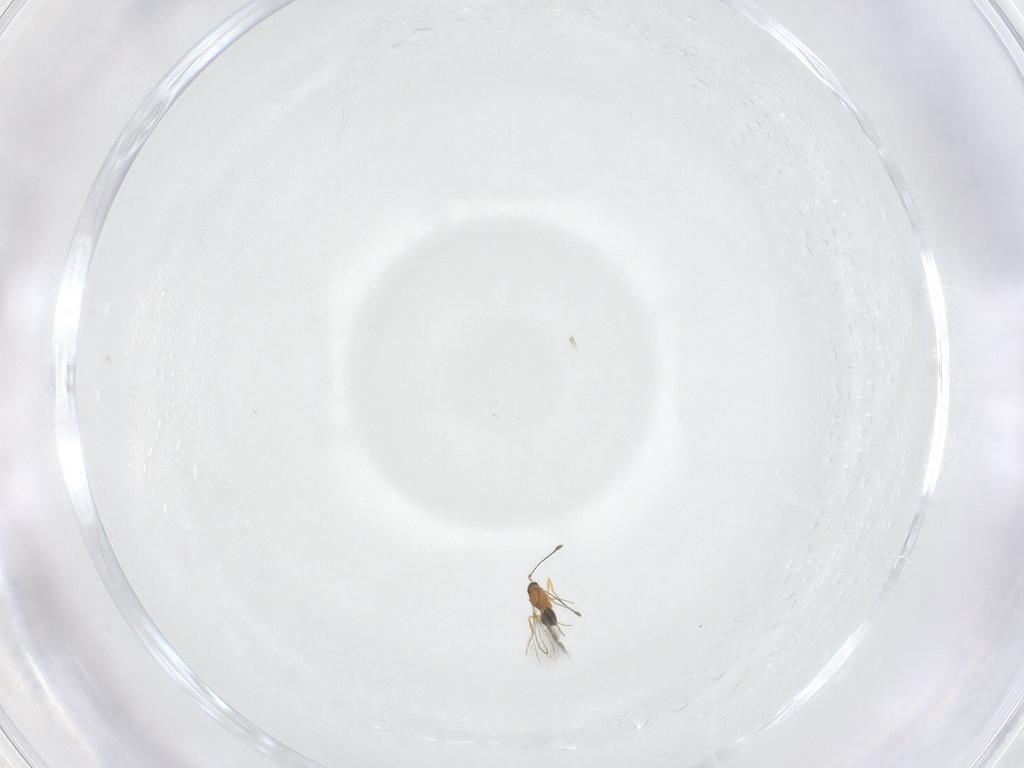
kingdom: Animalia
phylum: Arthropoda
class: Insecta
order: Hymenoptera
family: Mymaridae
